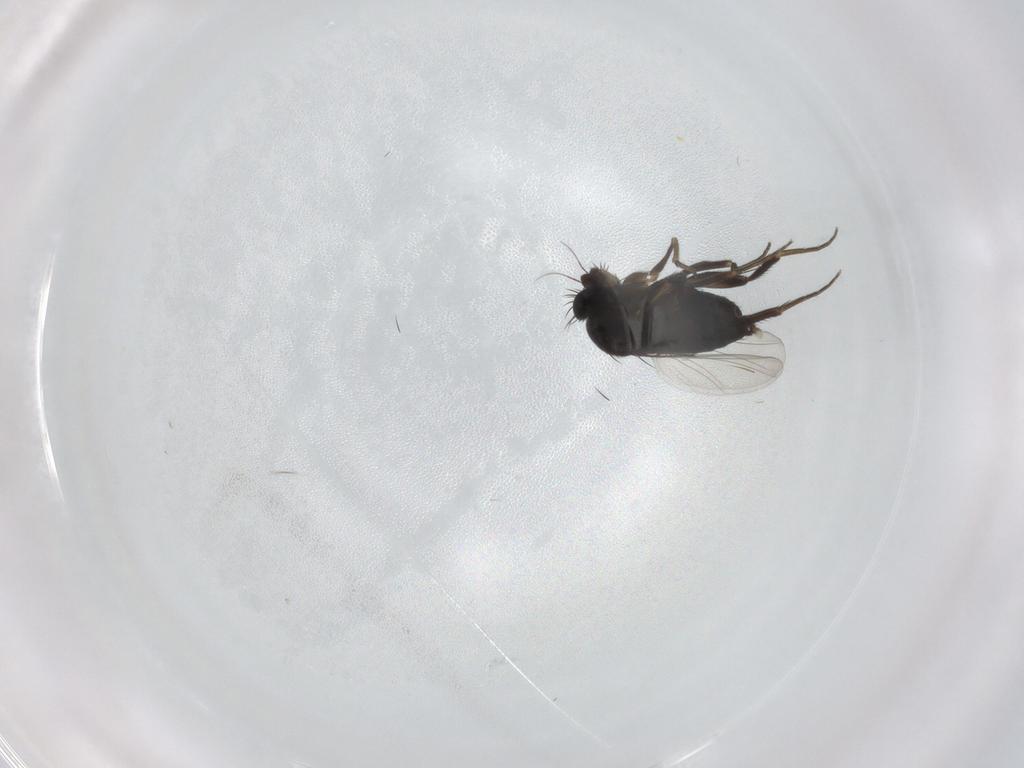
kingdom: Animalia
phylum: Arthropoda
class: Insecta
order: Diptera
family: Phoridae
